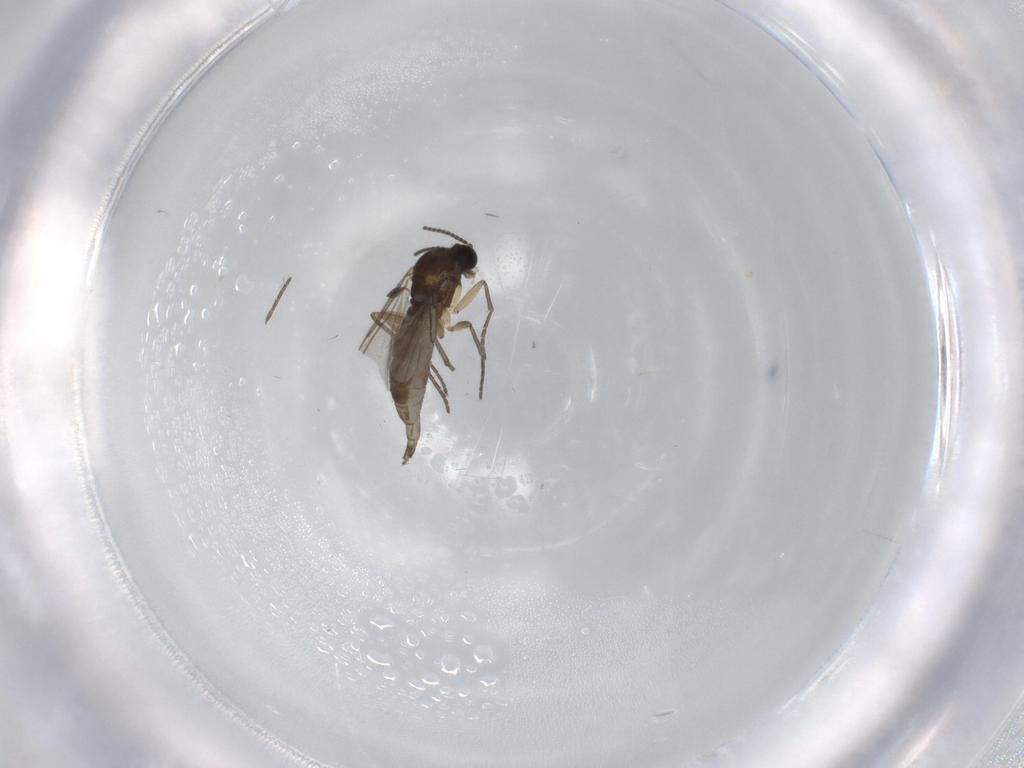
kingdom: Animalia
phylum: Arthropoda
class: Insecta
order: Diptera
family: Sciaridae
